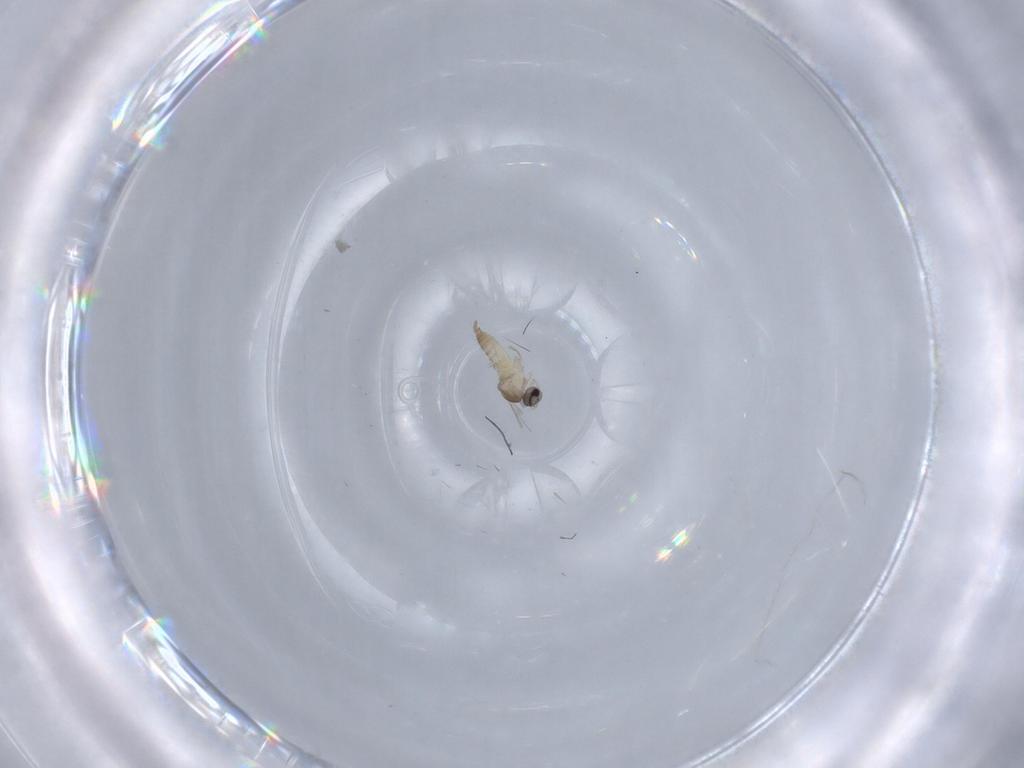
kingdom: Animalia
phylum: Arthropoda
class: Insecta
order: Diptera
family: Cecidomyiidae
